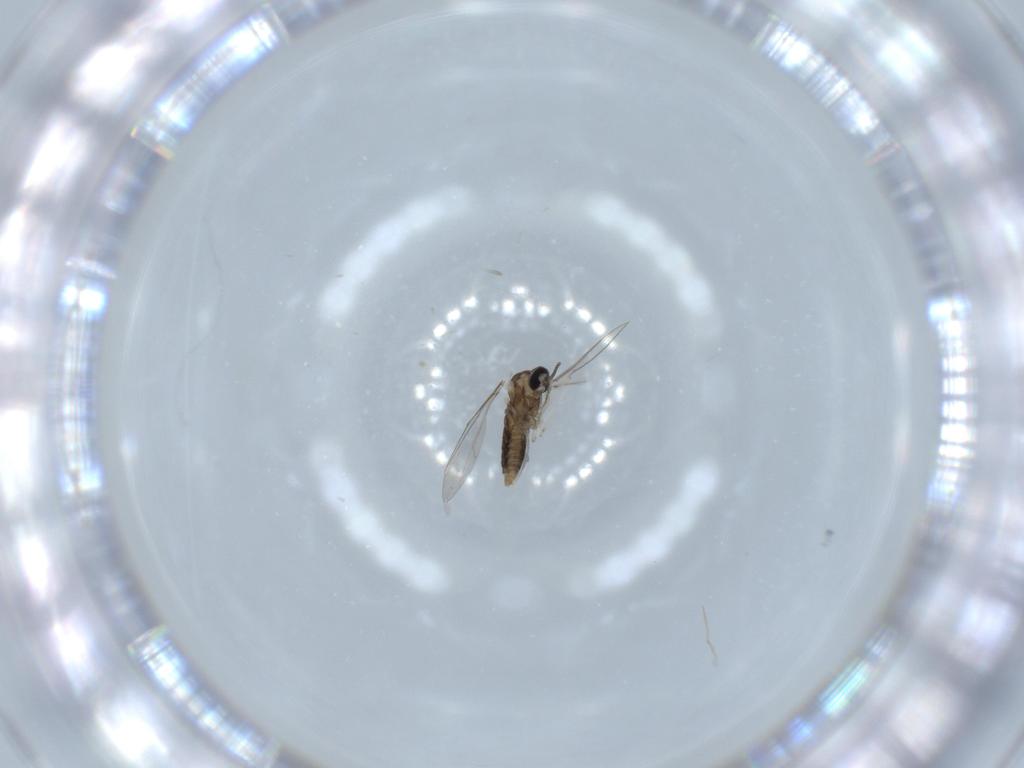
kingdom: Animalia
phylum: Arthropoda
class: Insecta
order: Diptera
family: Cecidomyiidae
